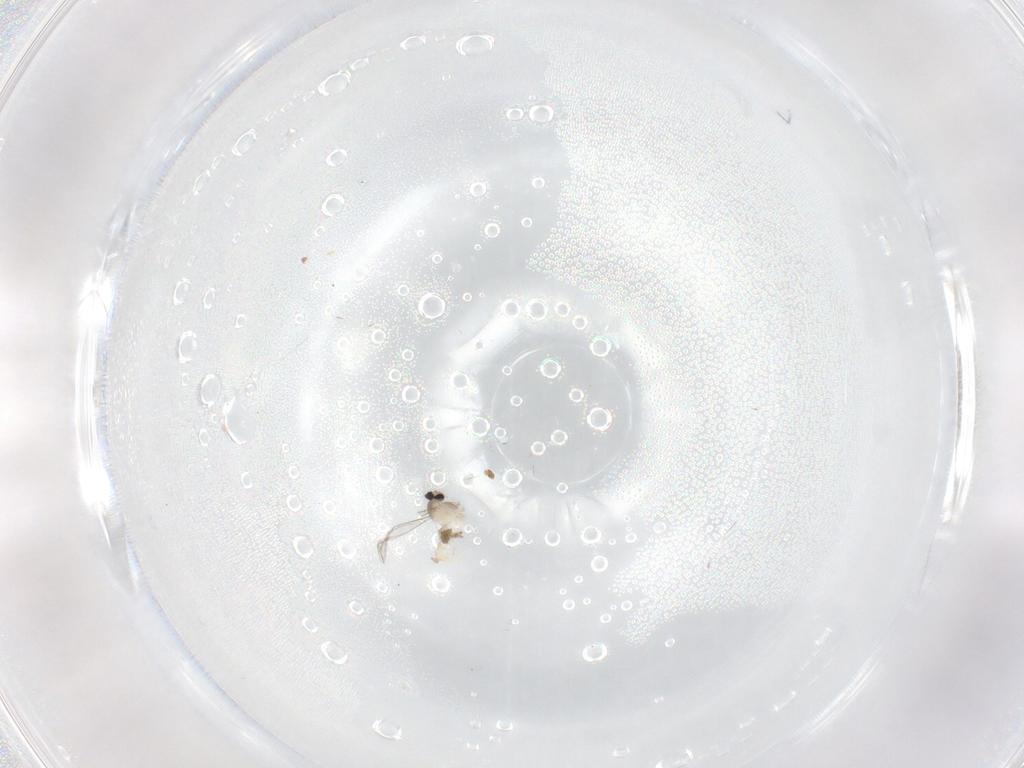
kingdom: Animalia
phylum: Arthropoda
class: Insecta
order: Diptera
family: Cecidomyiidae
